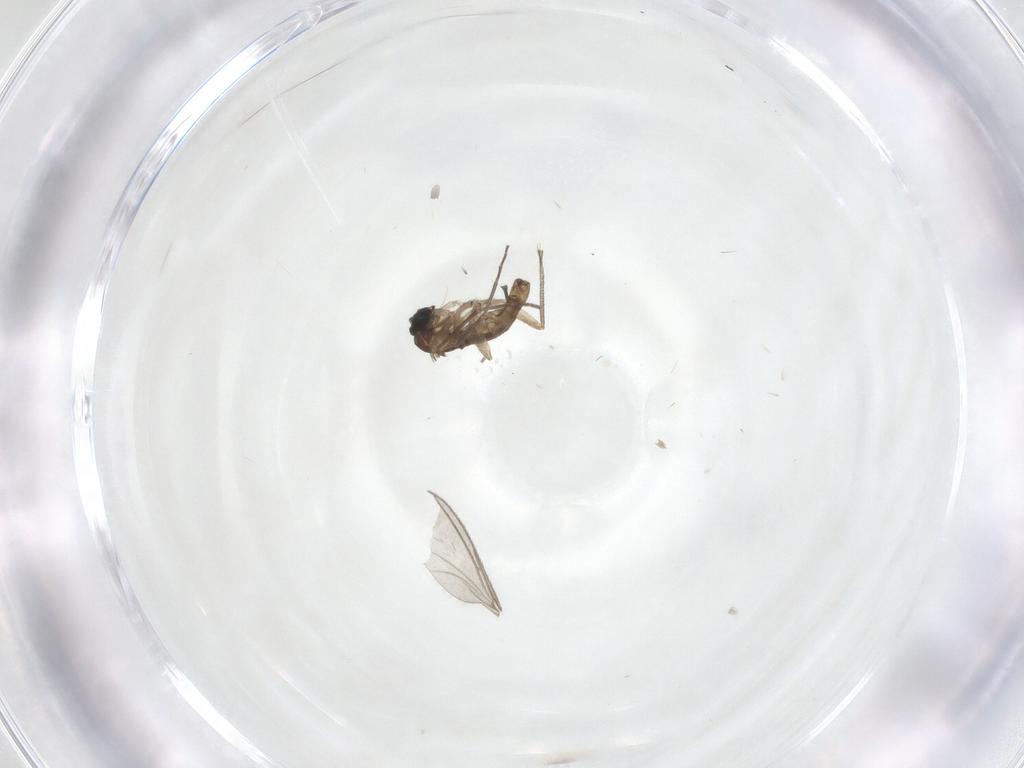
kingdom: Animalia
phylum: Arthropoda
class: Insecta
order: Diptera
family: Sciaridae
